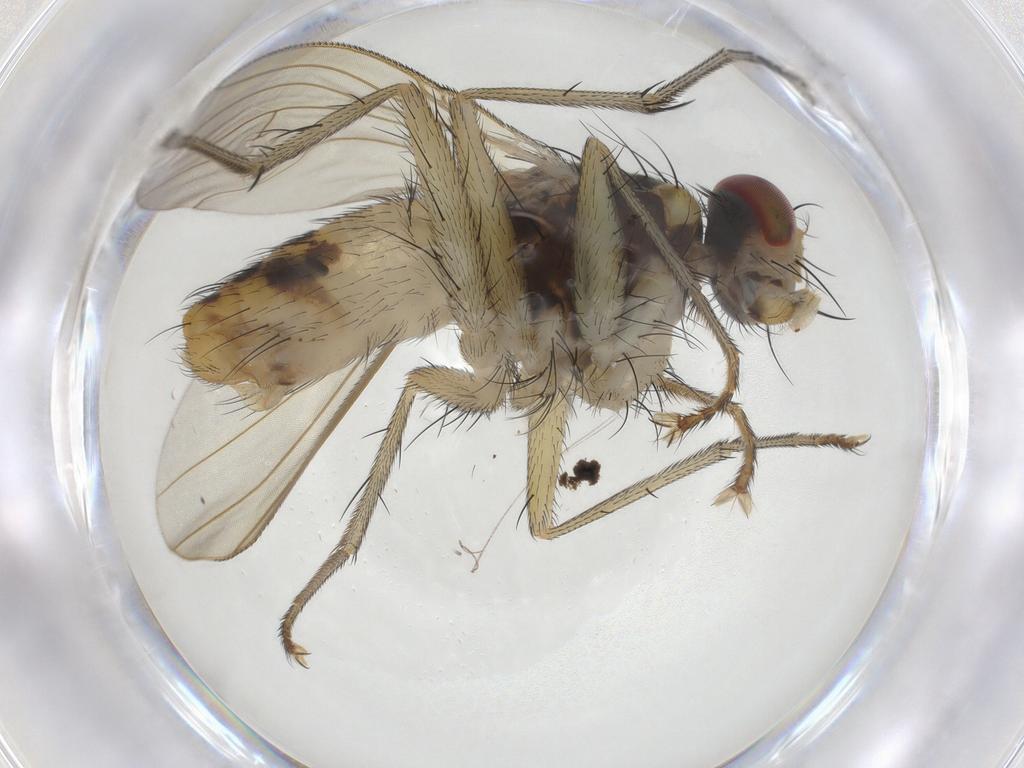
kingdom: Animalia
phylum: Arthropoda
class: Insecta
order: Diptera
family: Muscidae
